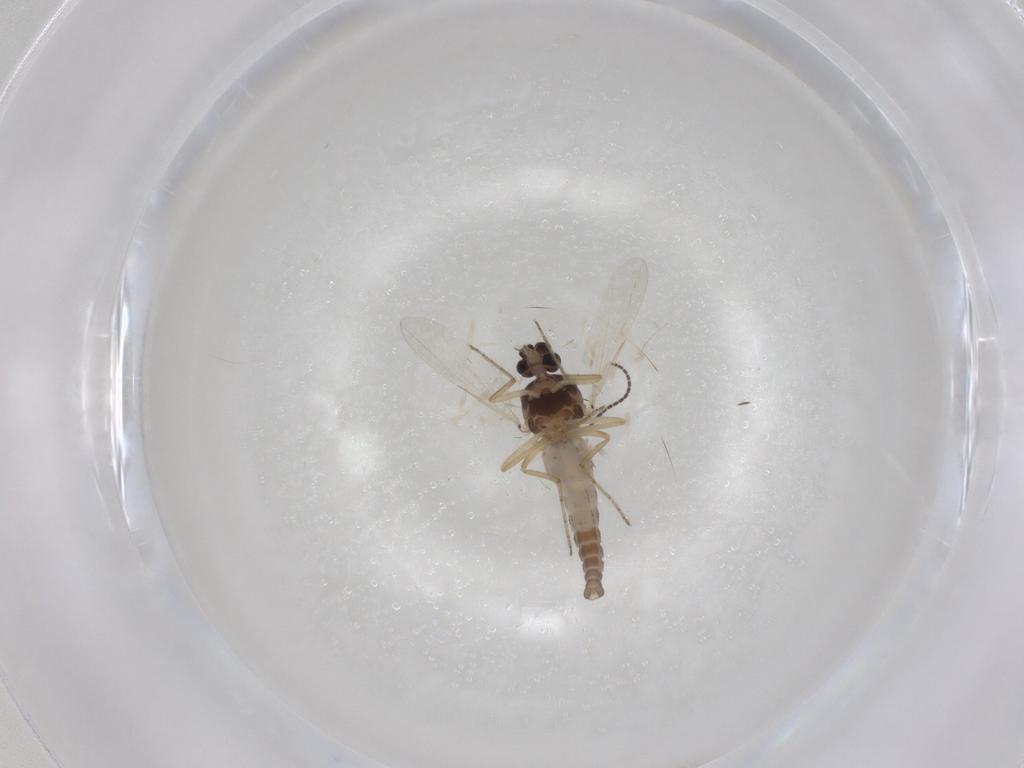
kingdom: Animalia
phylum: Arthropoda
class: Insecta
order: Diptera
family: Ceratopogonidae
